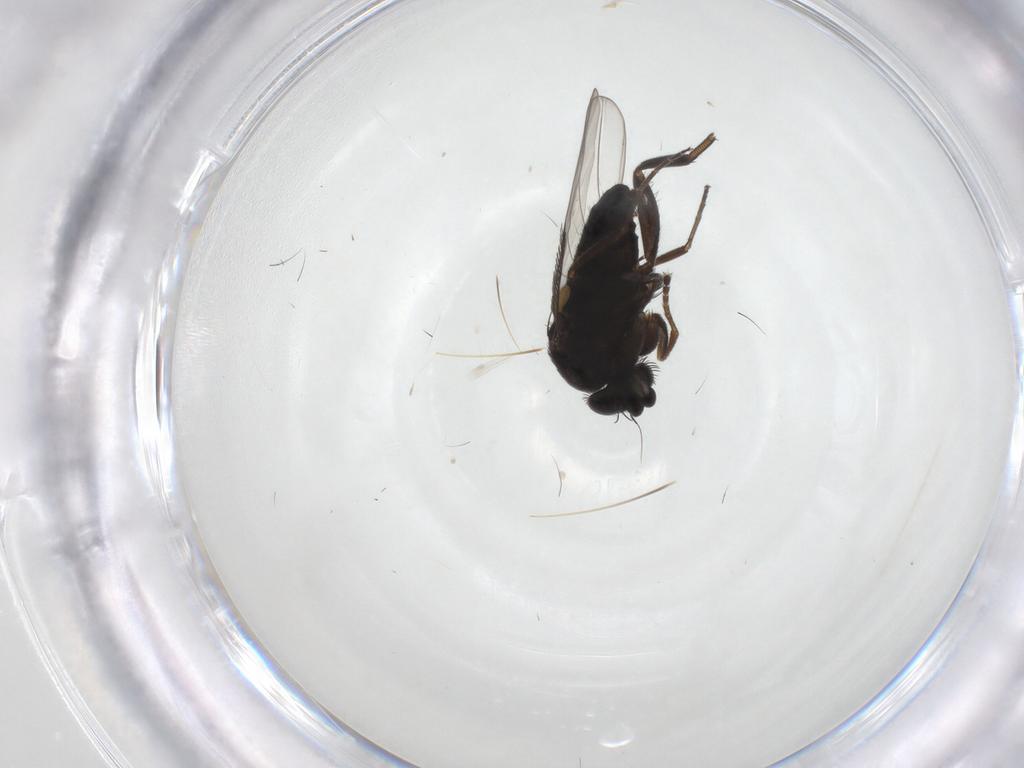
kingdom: Animalia
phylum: Arthropoda
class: Insecta
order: Diptera
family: Phoridae
